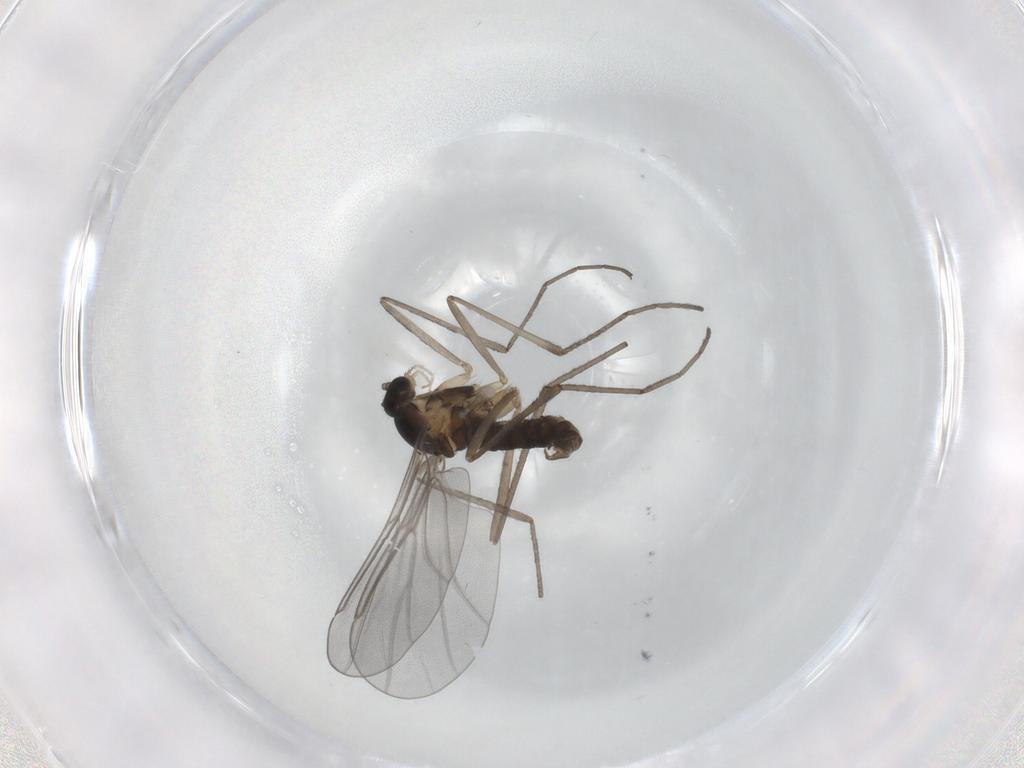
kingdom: Animalia
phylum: Arthropoda
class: Insecta
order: Diptera
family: Cecidomyiidae
